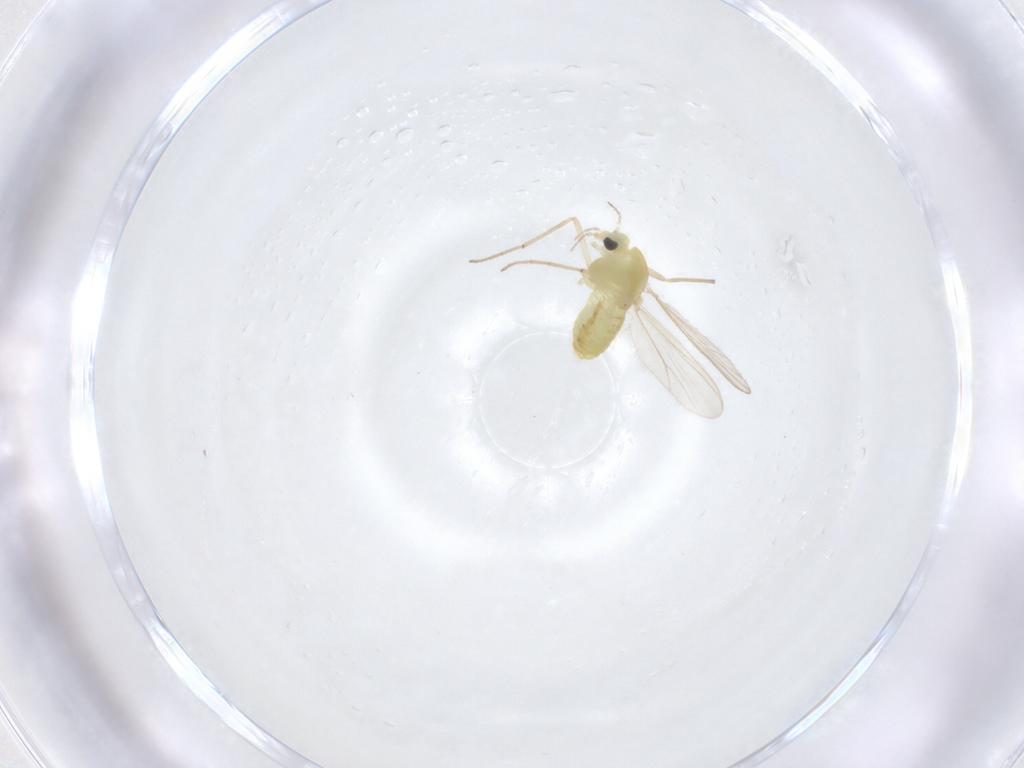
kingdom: Animalia
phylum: Arthropoda
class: Insecta
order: Diptera
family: Chironomidae
